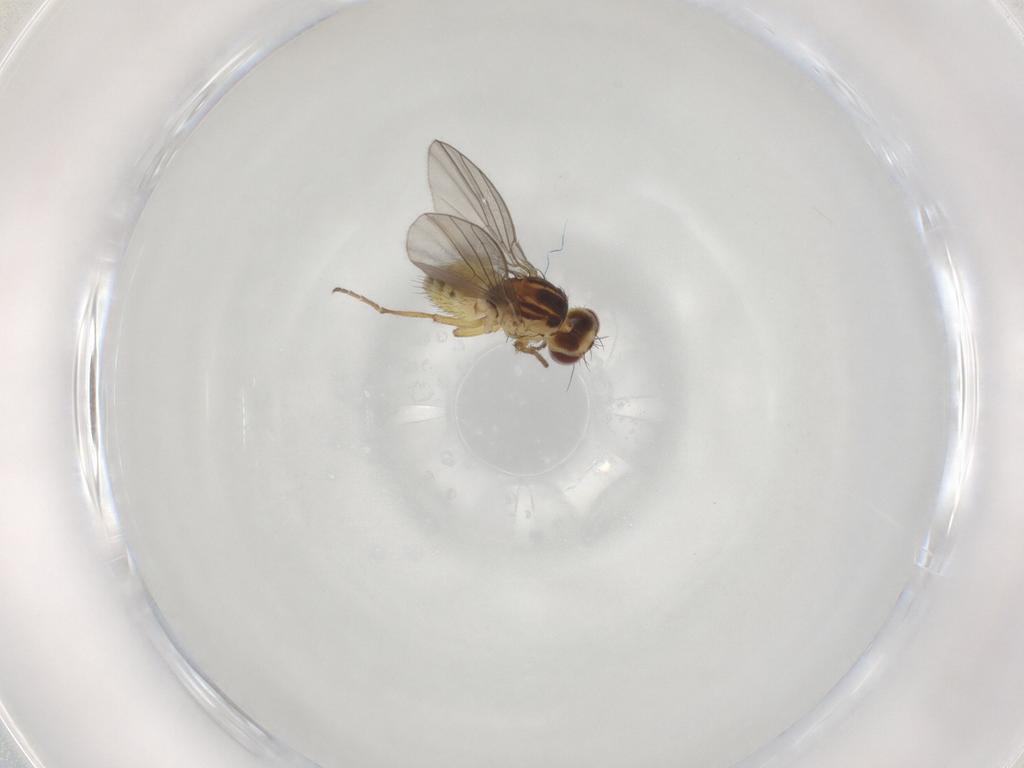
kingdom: Animalia
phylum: Arthropoda
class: Insecta
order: Diptera
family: Agromyzidae
